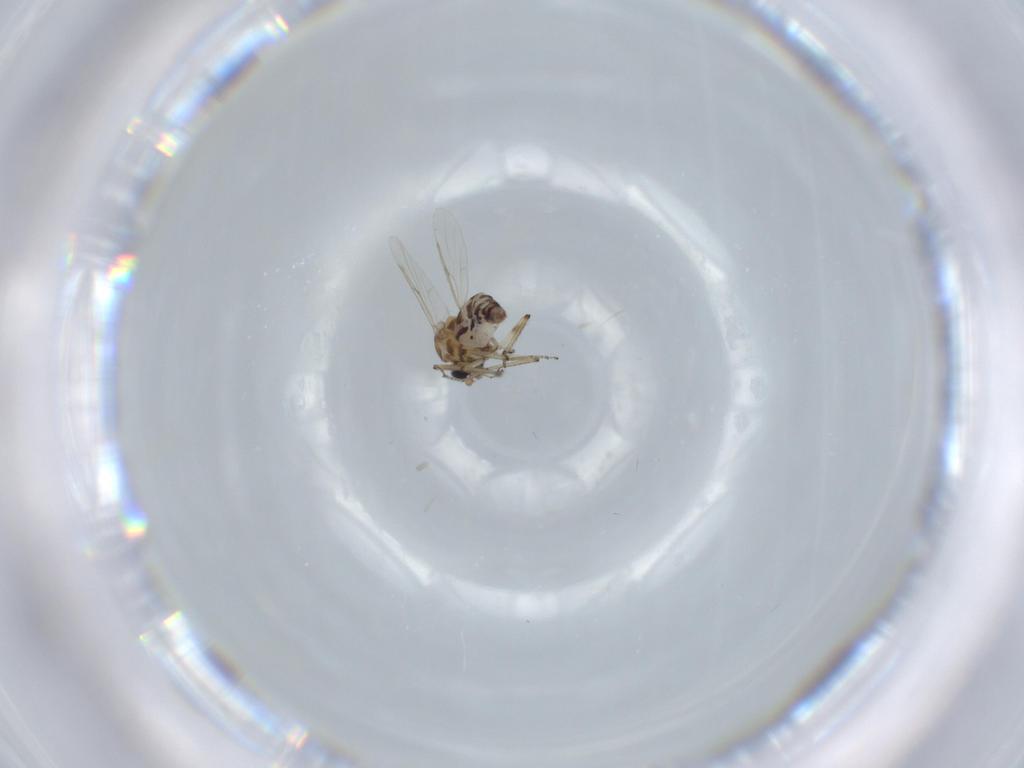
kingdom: Animalia
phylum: Arthropoda
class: Insecta
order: Diptera
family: Ceratopogonidae
